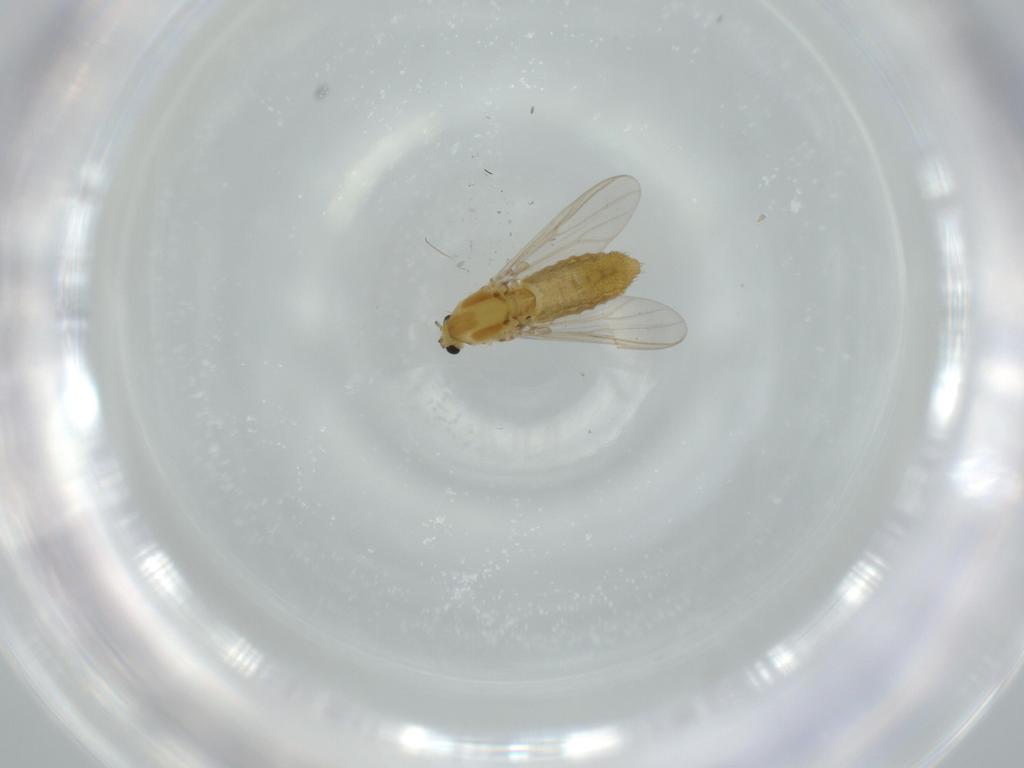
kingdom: Animalia
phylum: Arthropoda
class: Insecta
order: Diptera
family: Chironomidae
